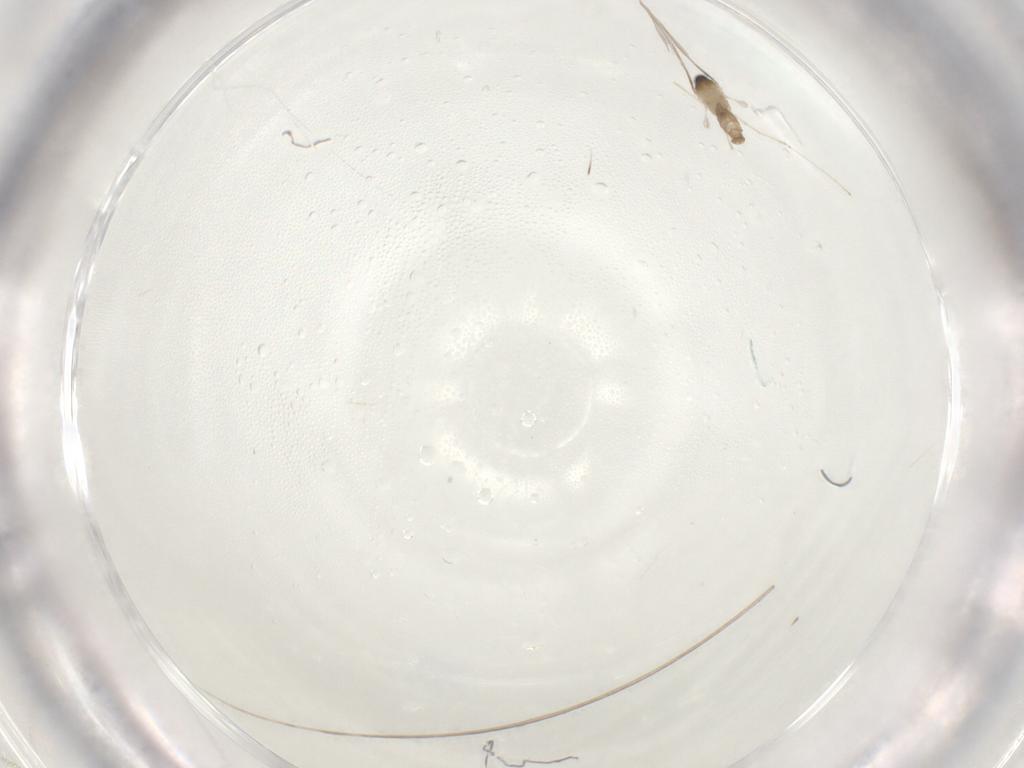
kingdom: Animalia
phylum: Arthropoda
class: Insecta
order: Diptera
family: Cecidomyiidae
